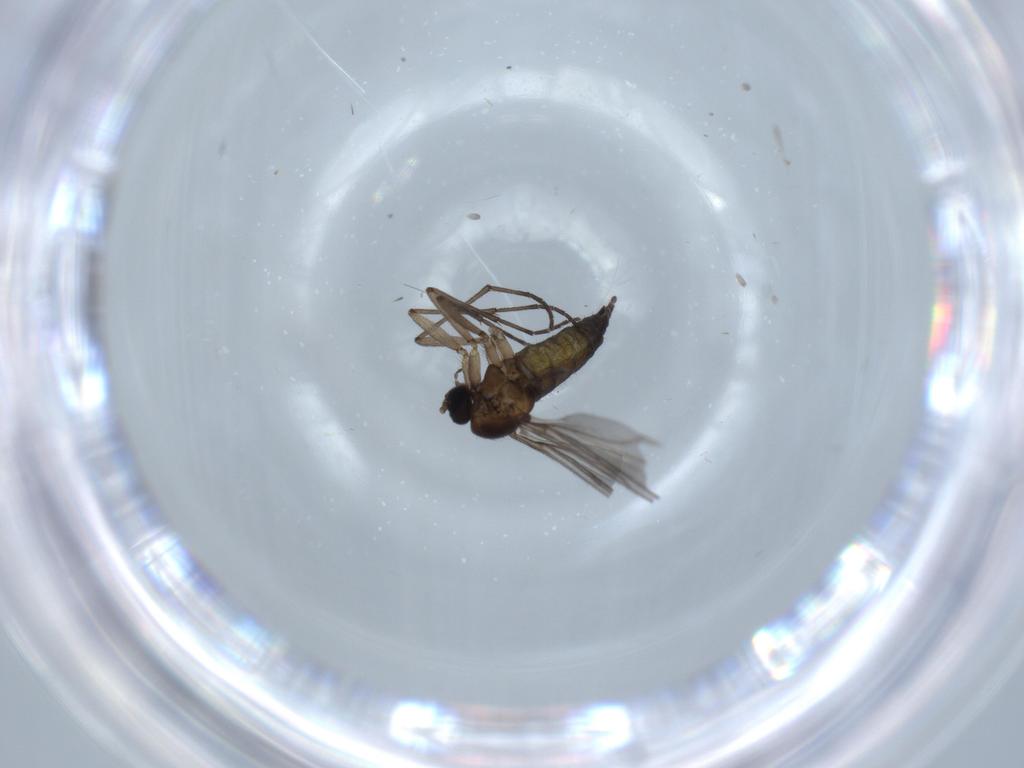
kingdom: Animalia
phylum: Arthropoda
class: Insecta
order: Diptera
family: Sciaridae
